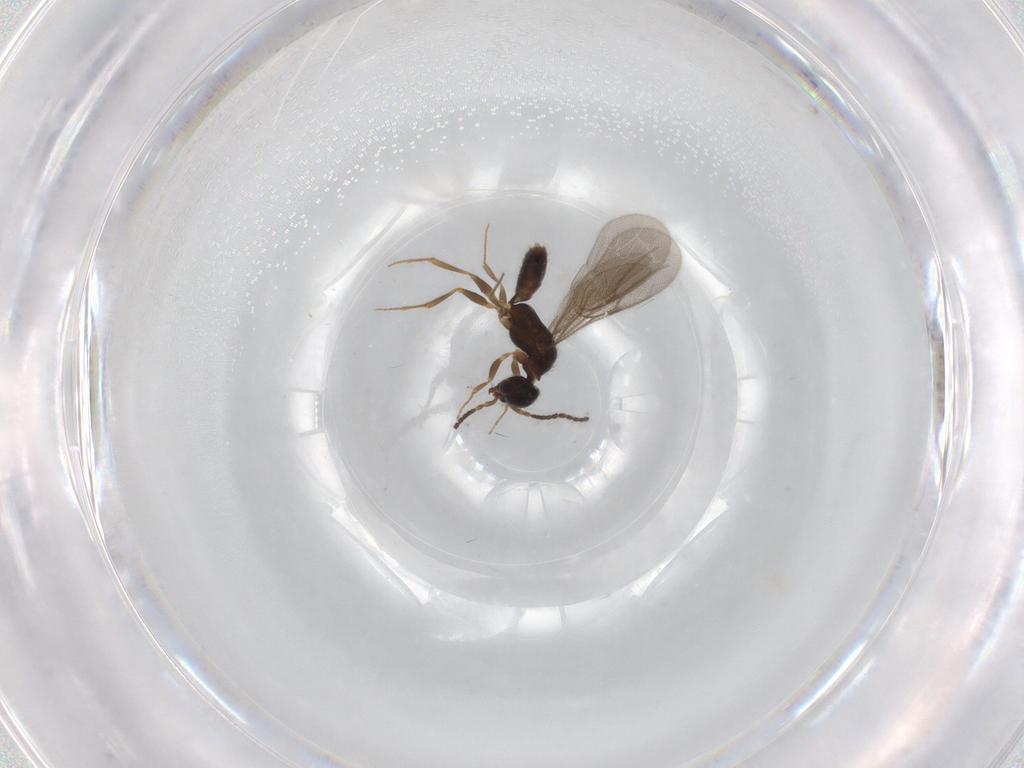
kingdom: Animalia
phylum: Arthropoda
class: Insecta
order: Hymenoptera
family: Bethylidae
